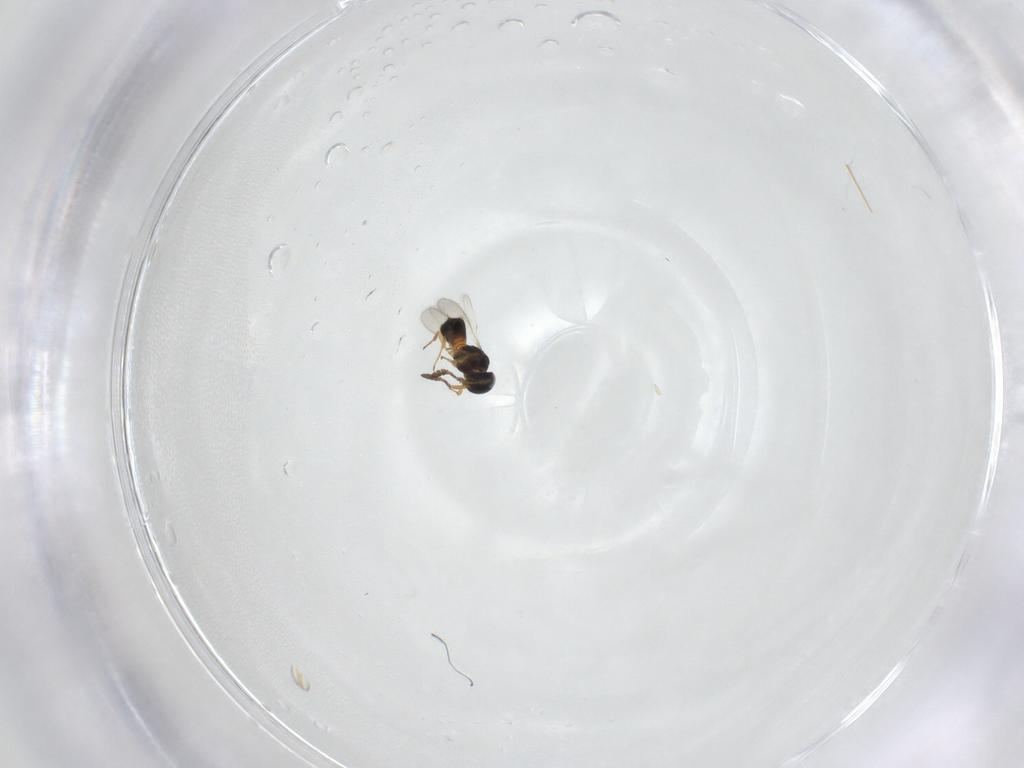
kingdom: Animalia
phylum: Arthropoda
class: Insecta
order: Hymenoptera
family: Scelionidae
